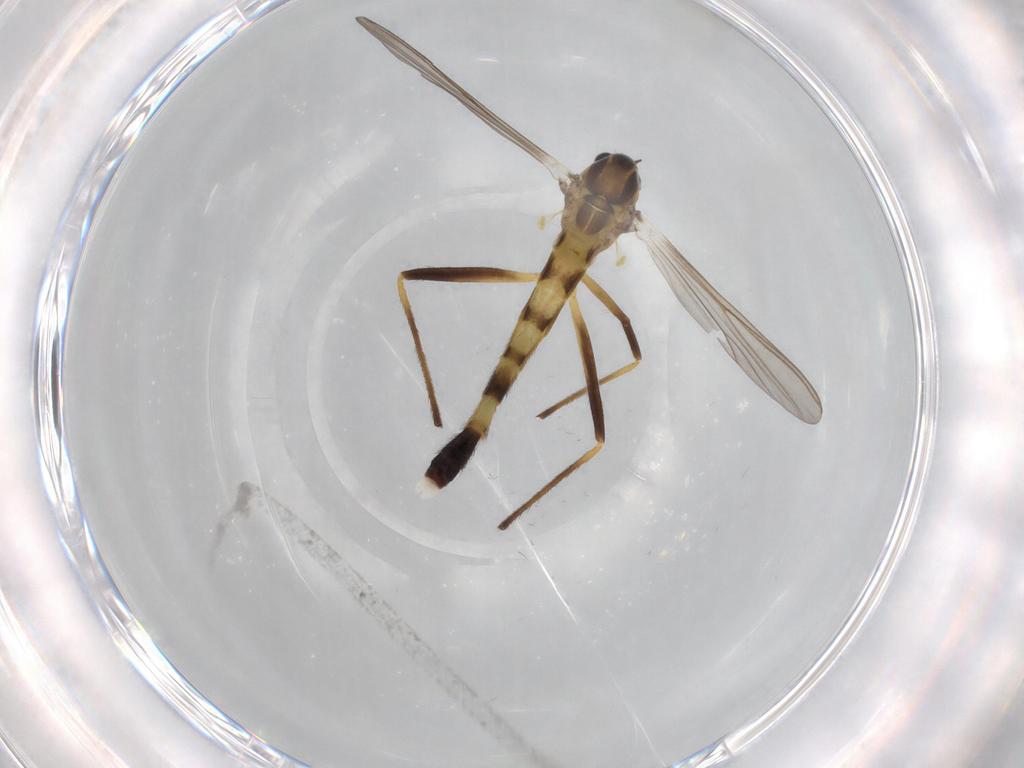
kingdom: Animalia
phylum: Arthropoda
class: Insecta
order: Diptera
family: Chironomidae
